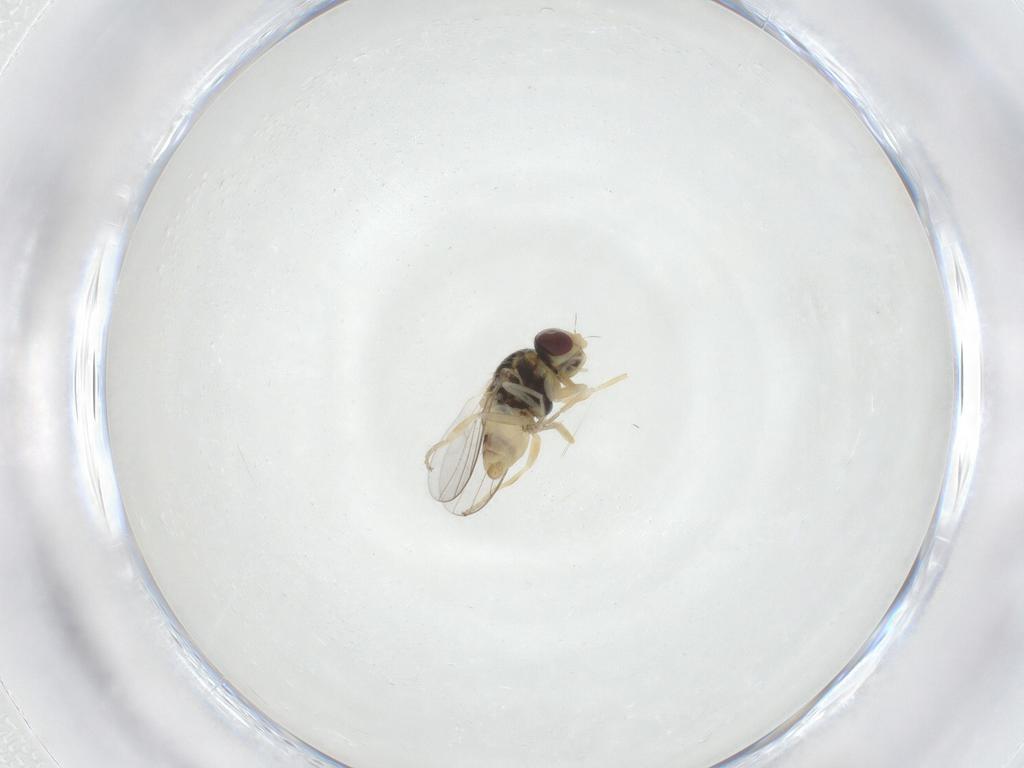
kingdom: Animalia
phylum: Arthropoda
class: Insecta
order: Diptera
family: Chloropidae
